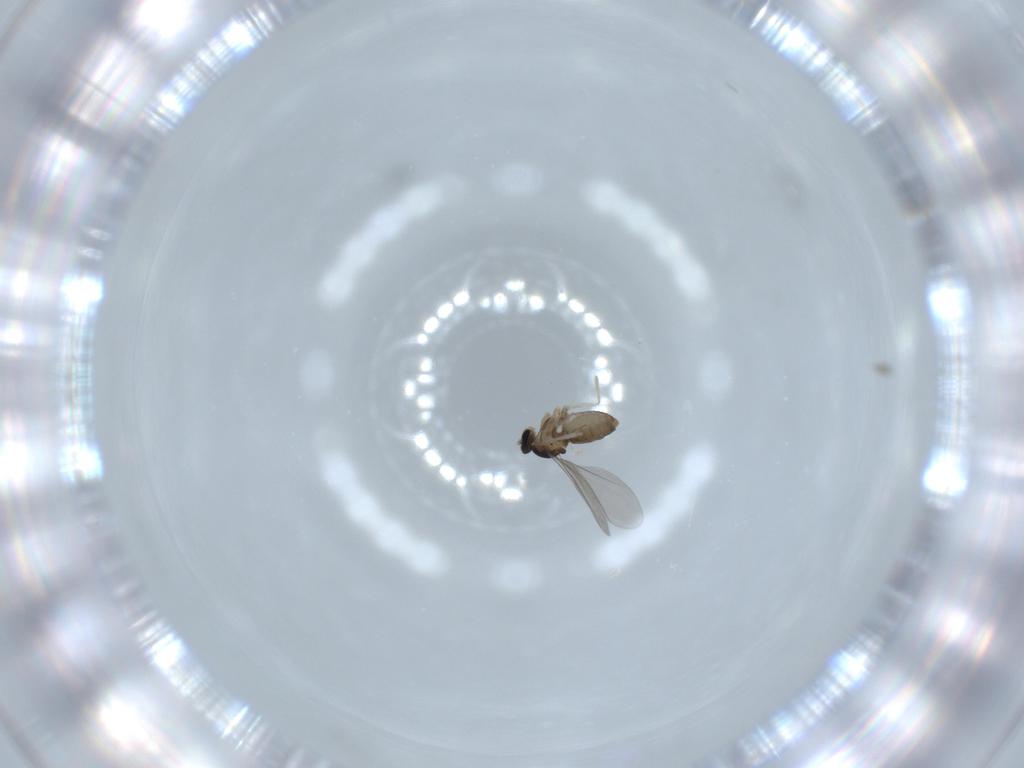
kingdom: Animalia
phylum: Arthropoda
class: Insecta
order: Diptera
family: Cecidomyiidae
